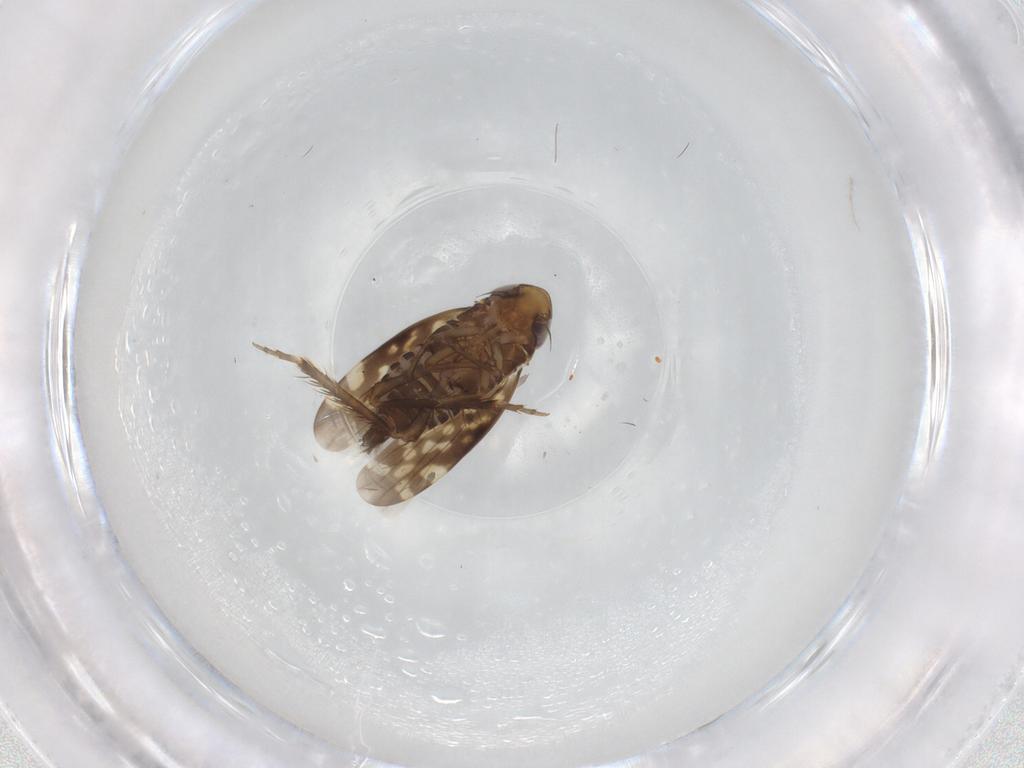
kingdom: Animalia
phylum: Arthropoda
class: Insecta
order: Hemiptera
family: Cicadellidae
